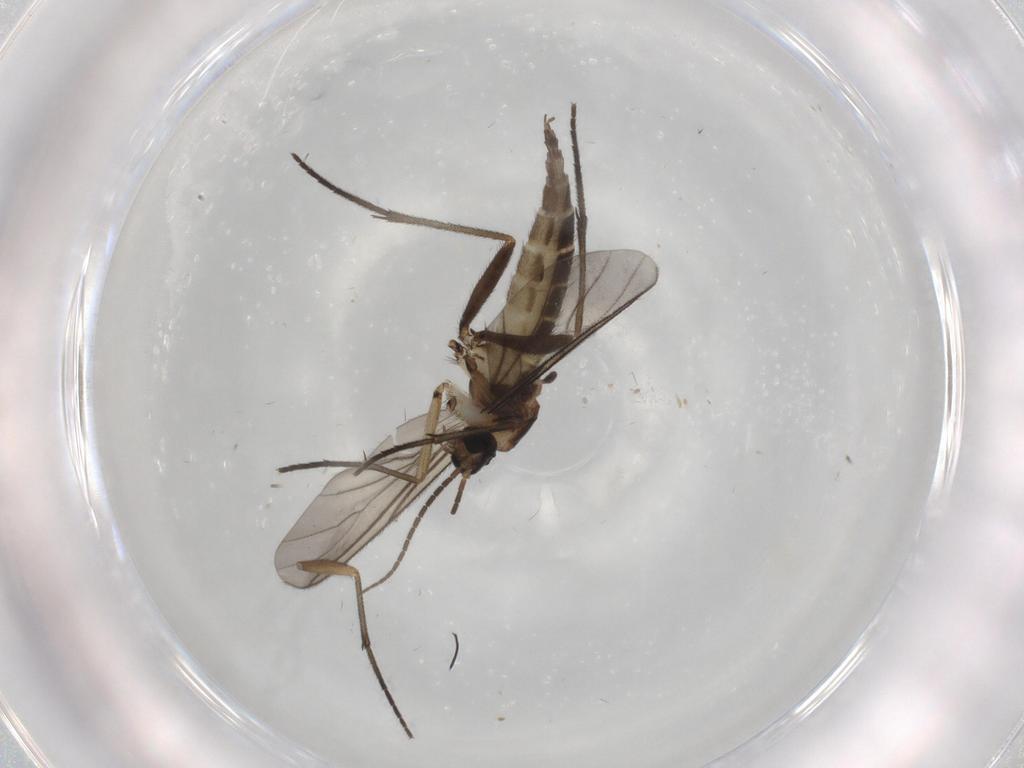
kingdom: Animalia
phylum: Arthropoda
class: Insecta
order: Diptera
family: Sciaridae
